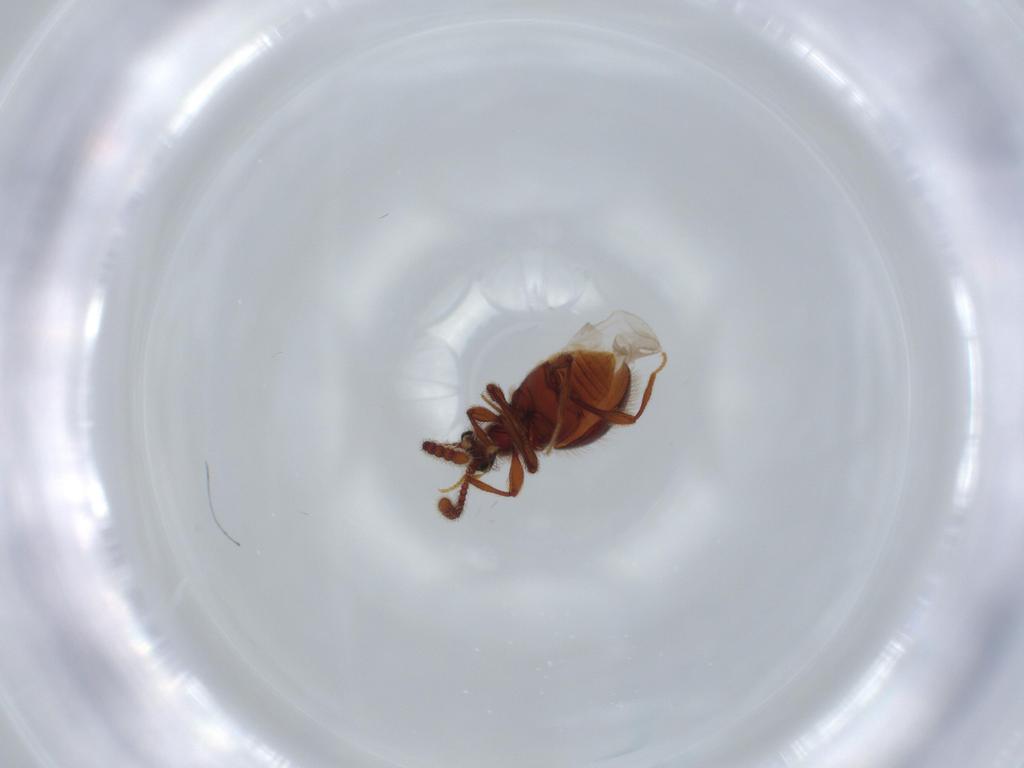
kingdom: Animalia
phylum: Arthropoda
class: Insecta
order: Coleoptera
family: Staphylinidae
